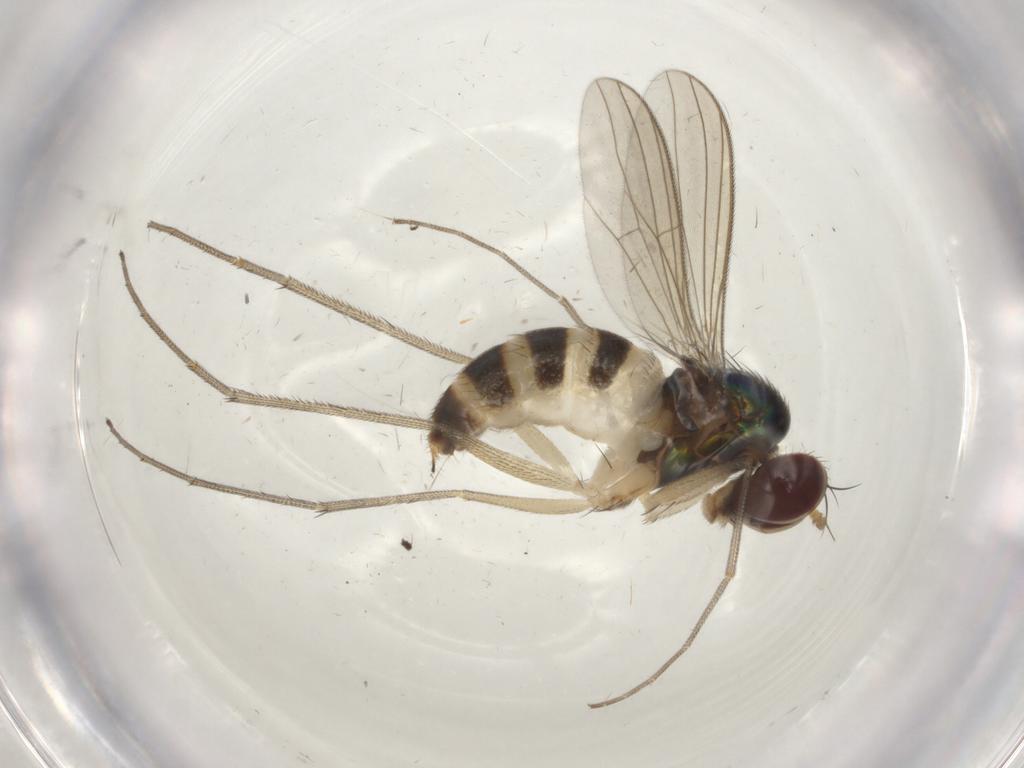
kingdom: Animalia
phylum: Arthropoda
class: Insecta
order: Diptera
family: Dolichopodidae
